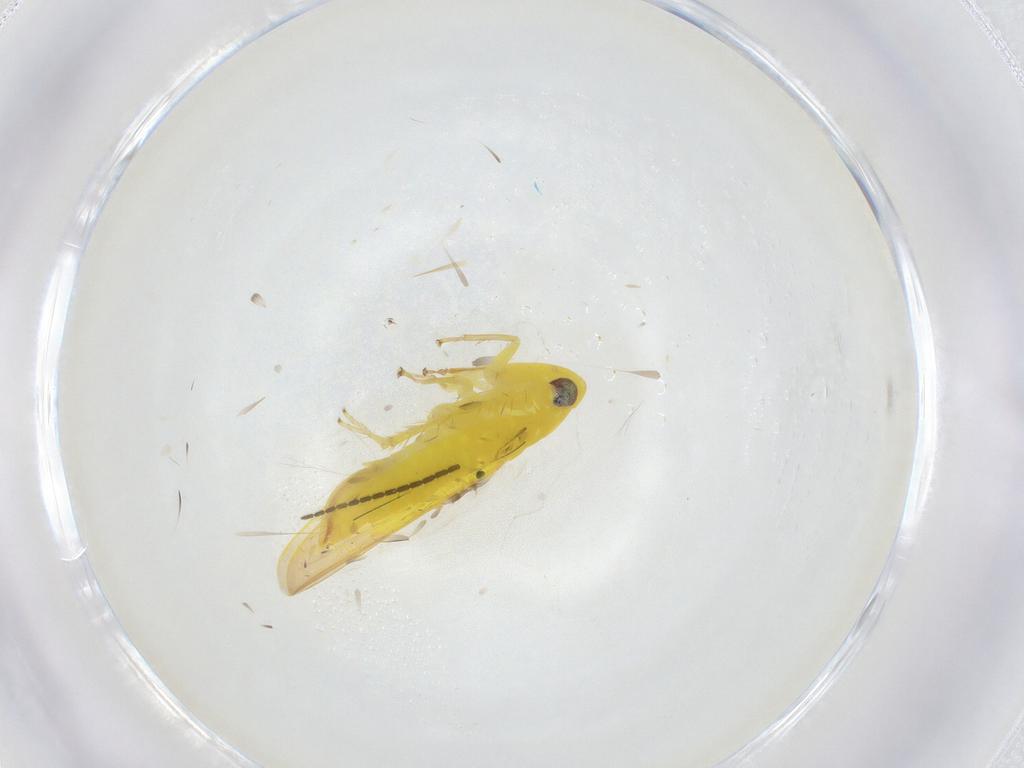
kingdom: Animalia
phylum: Arthropoda
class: Insecta
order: Hemiptera
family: Cicadellidae
